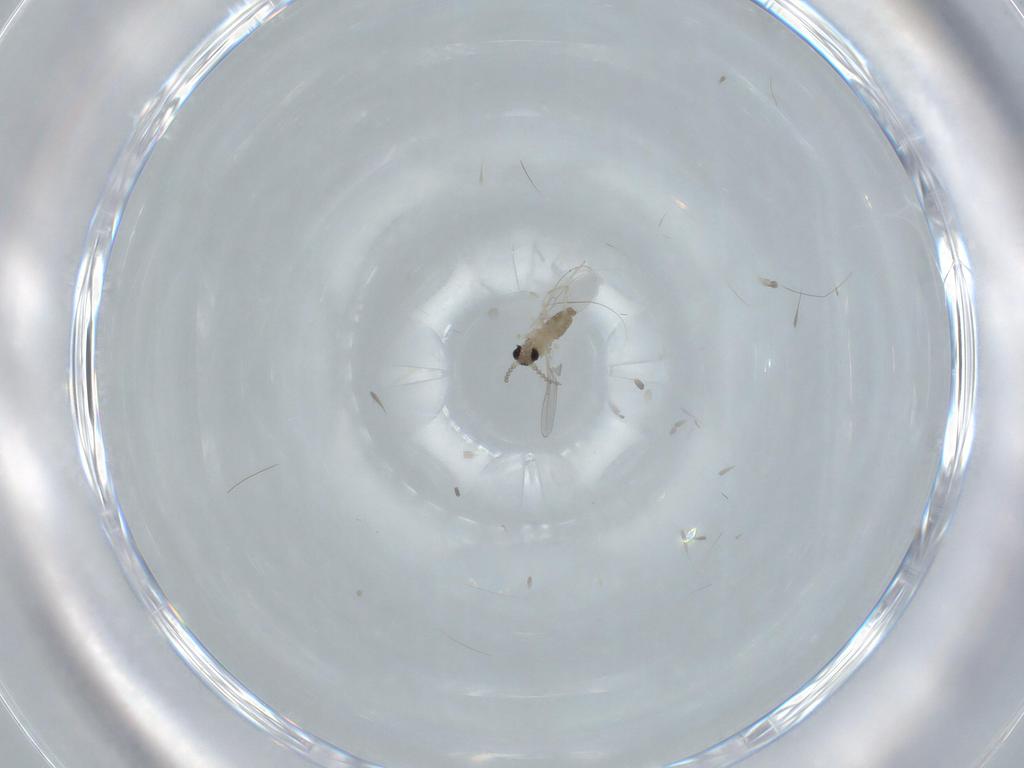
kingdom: Animalia
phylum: Arthropoda
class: Insecta
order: Diptera
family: Cecidomyiidae
